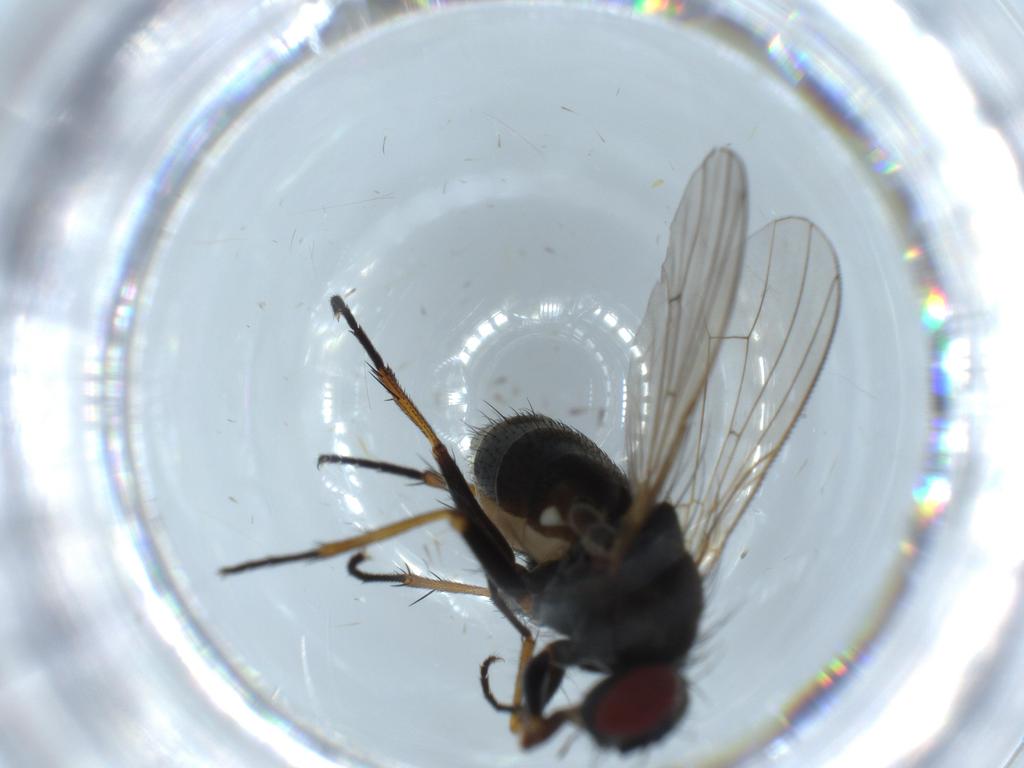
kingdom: Animalia
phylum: Arthropoda
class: Insecta
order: Diptera
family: Muscidae
